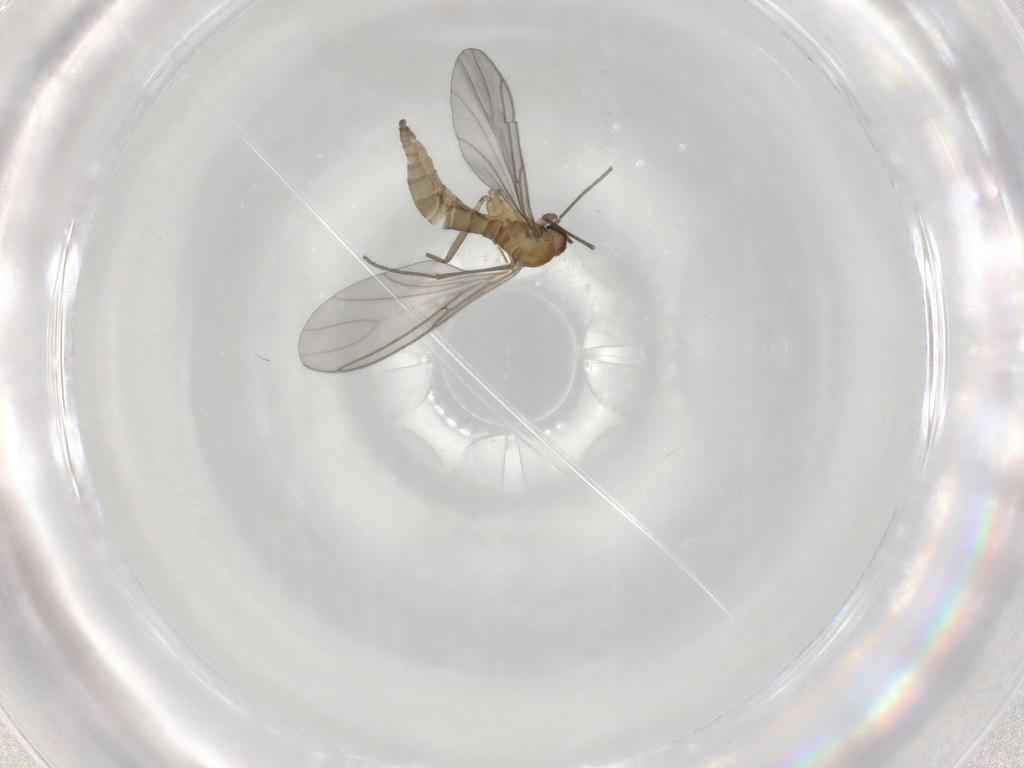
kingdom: Animalia
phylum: Arthropoda
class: Insecta
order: Diptera
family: Sciaridae
